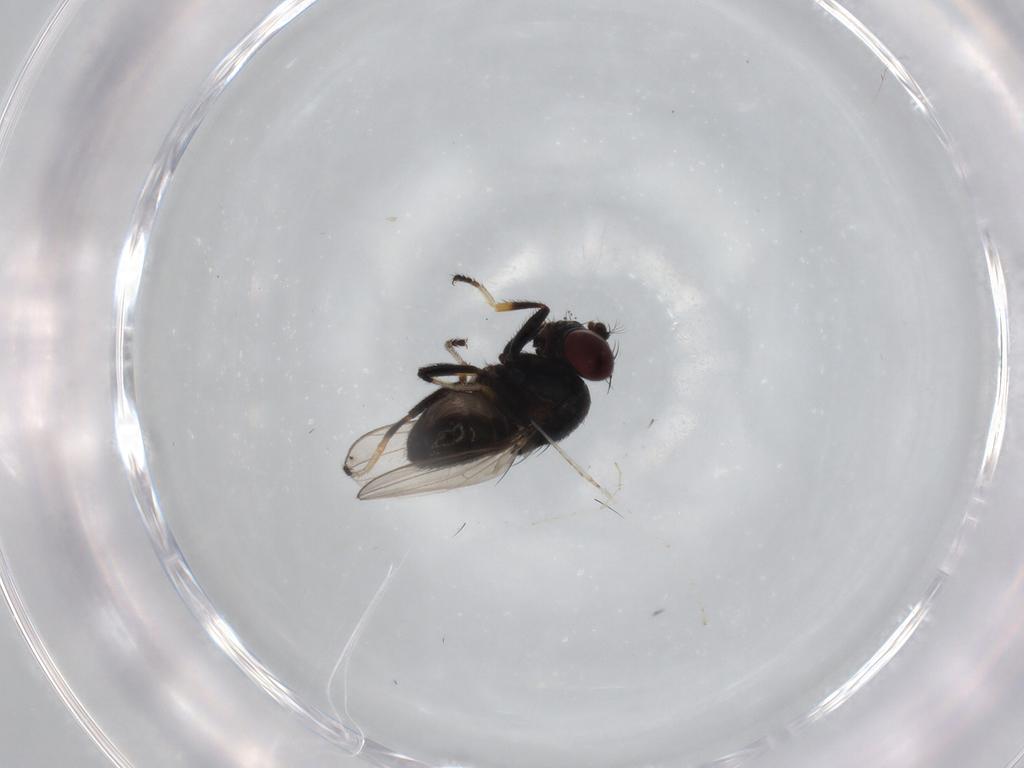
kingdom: Animalia
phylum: Arthropoda
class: Insecta
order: Diptera
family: Ephydridae
